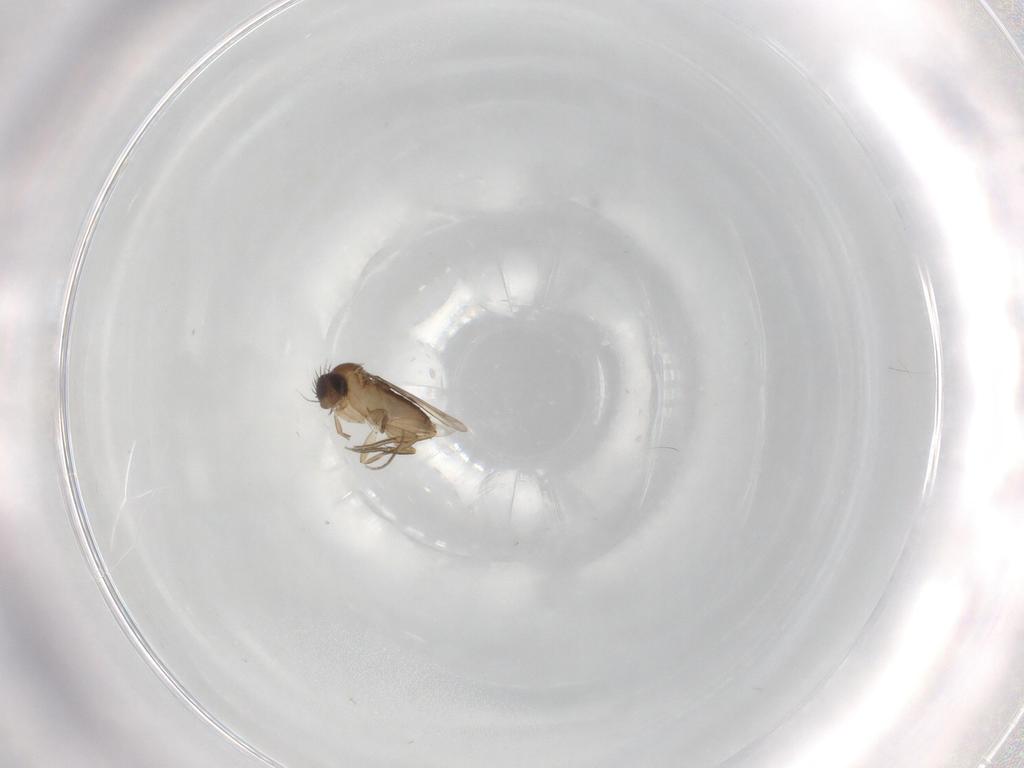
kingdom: Animalia
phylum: Arthropoda
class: Insecta
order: Diptera
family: Phoridae
